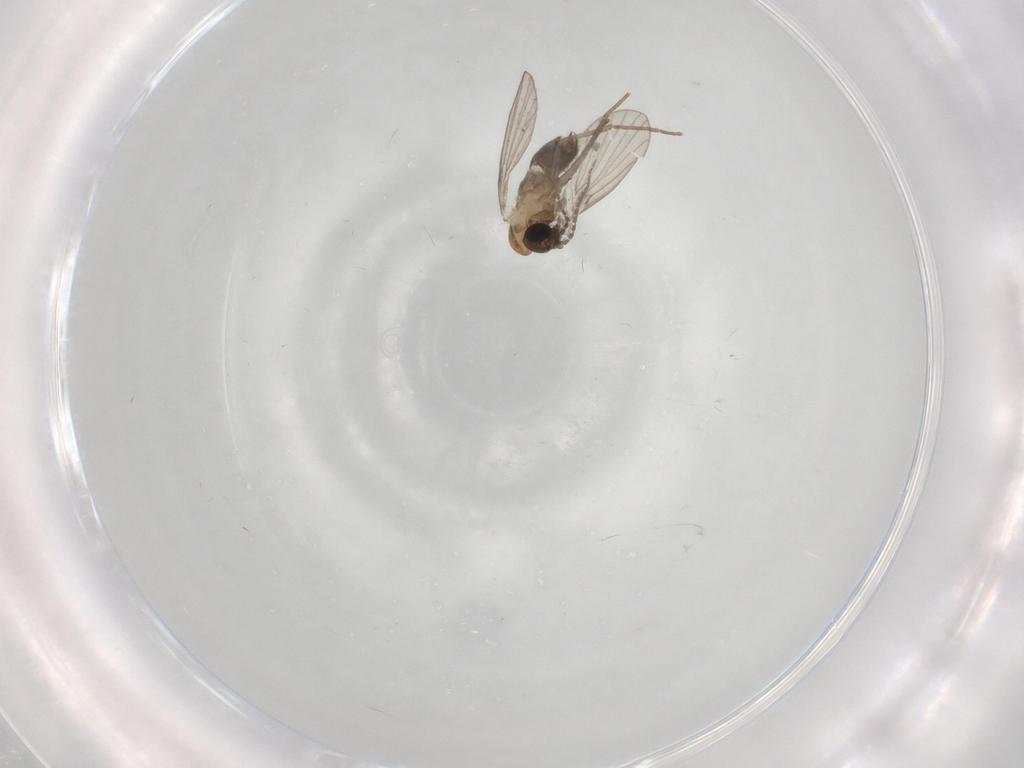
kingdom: Animalia
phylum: Arthropoda
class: Insecta
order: Diptera
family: Psychodidae
